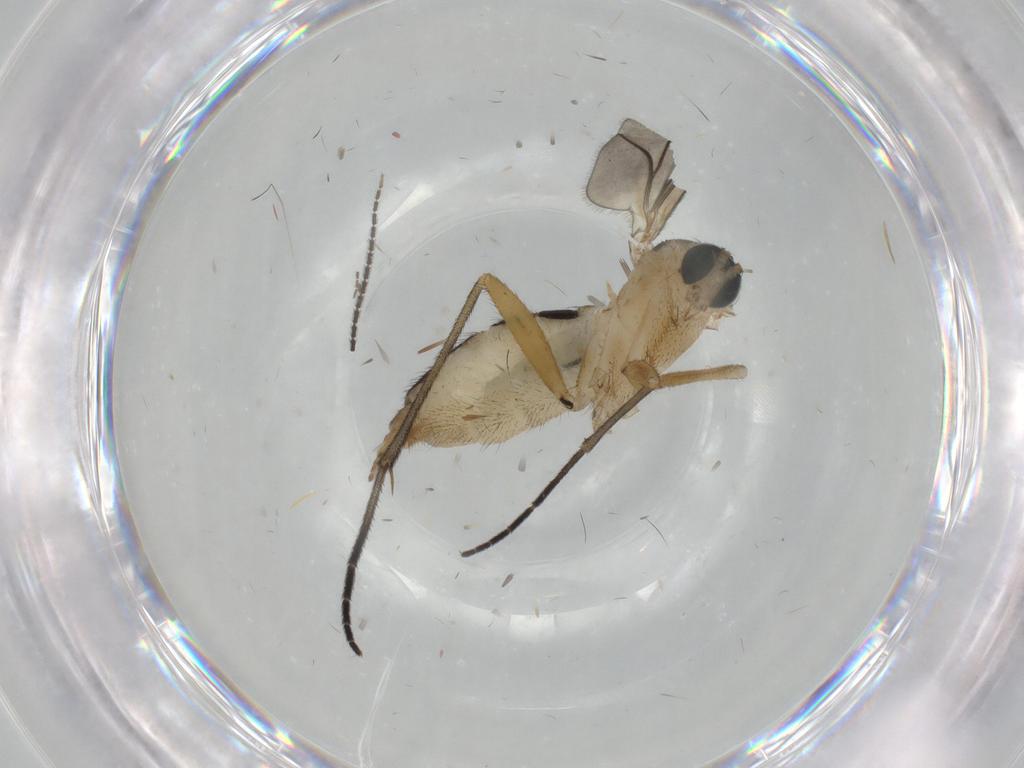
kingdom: Animalia
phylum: Arthropoda
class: Insecta
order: Diptera
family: Sciaridae
